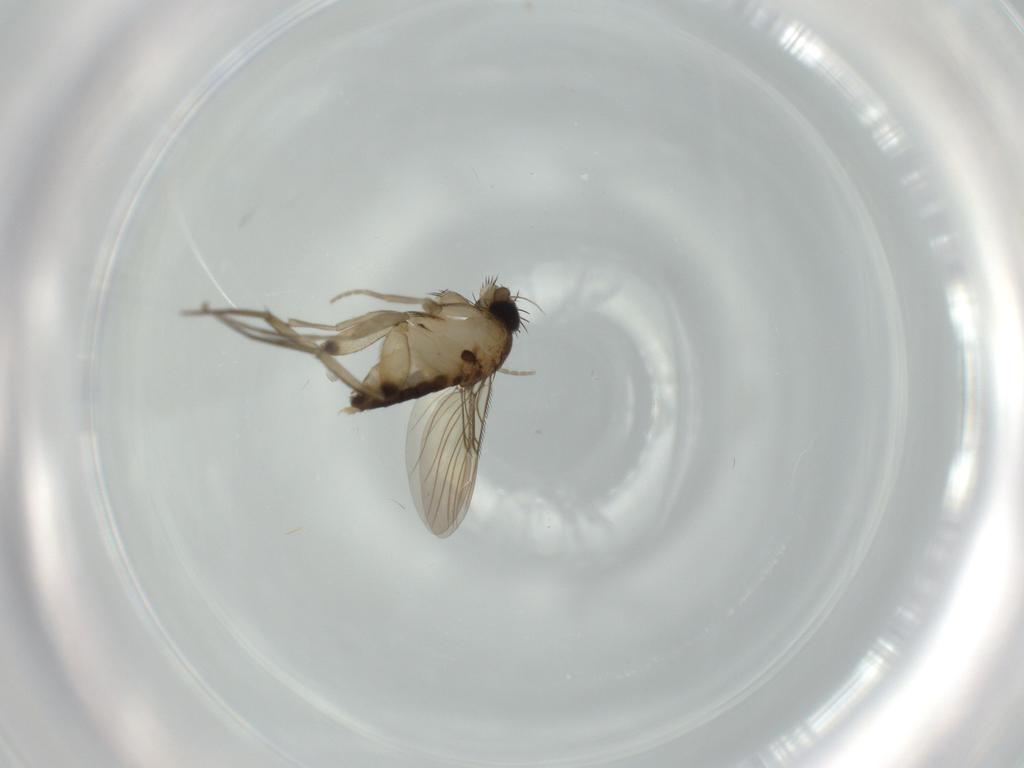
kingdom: Animalia
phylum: Arthropoda
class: Insecta
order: Diptera
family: Phoridae
